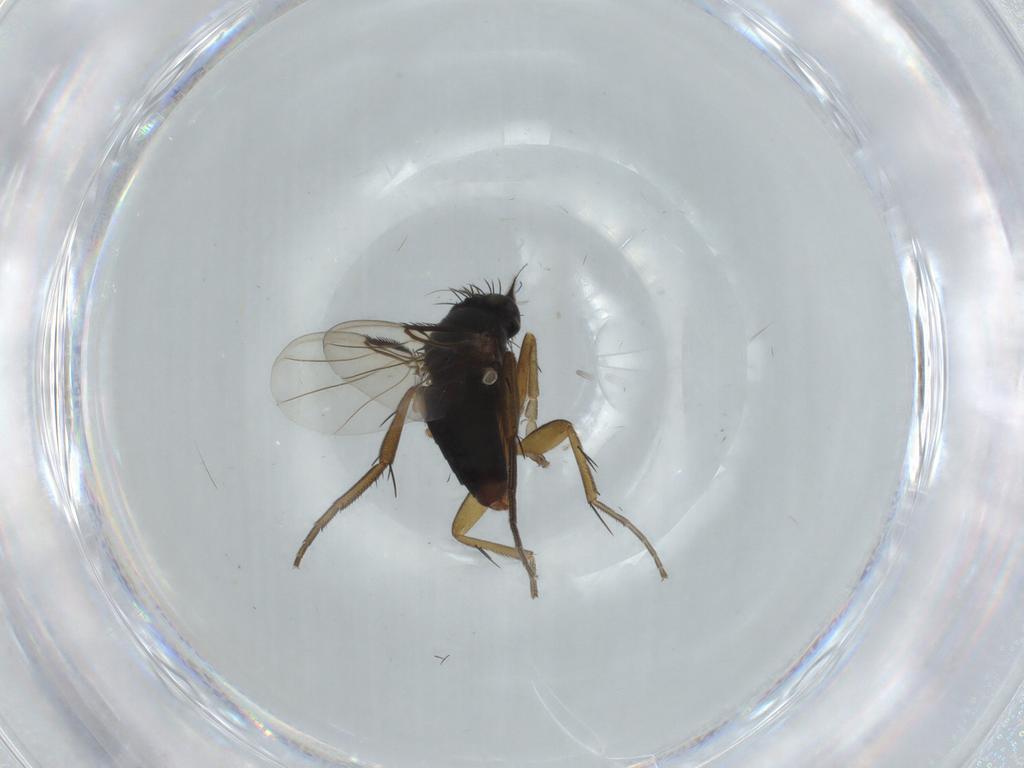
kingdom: Animalia
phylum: Arthropoda
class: Insecta
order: Diptera
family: Phoridae
